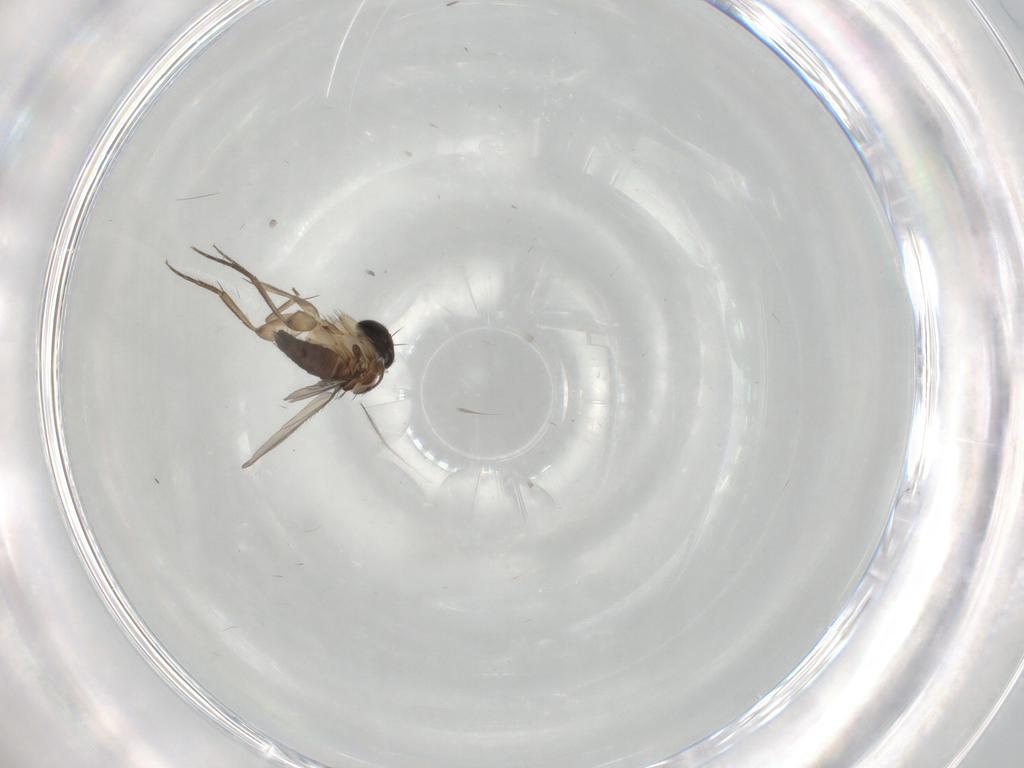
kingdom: Animalia
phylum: Arthropoda
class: Insecta
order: Diptera
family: Phoridae
